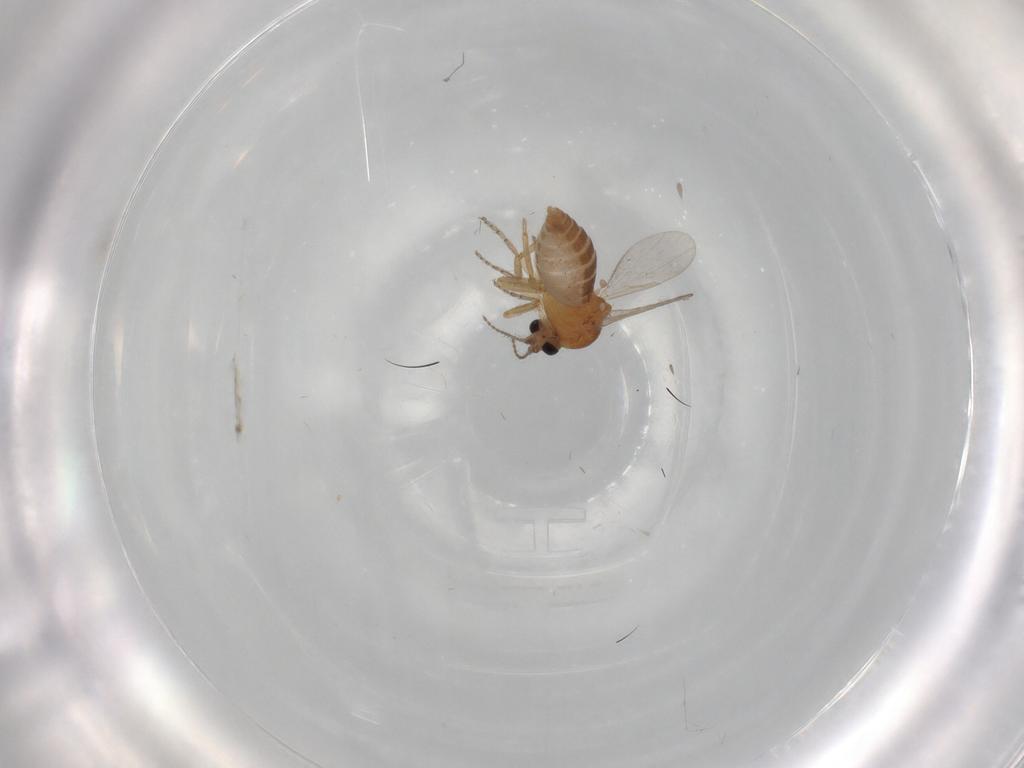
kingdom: Animalia
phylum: Arthropoda
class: Insecta
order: Diptera
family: Ceratopogonidae
